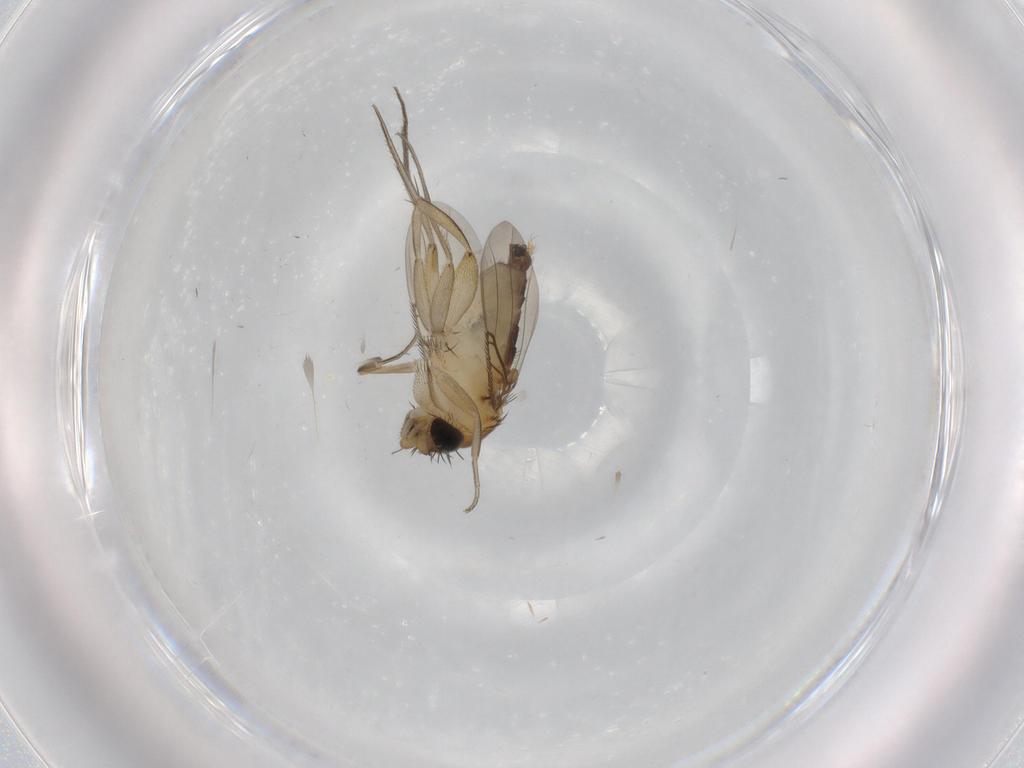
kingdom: Animalia
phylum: Arthropoda
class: Insecta
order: Diptera
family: Phoridae
